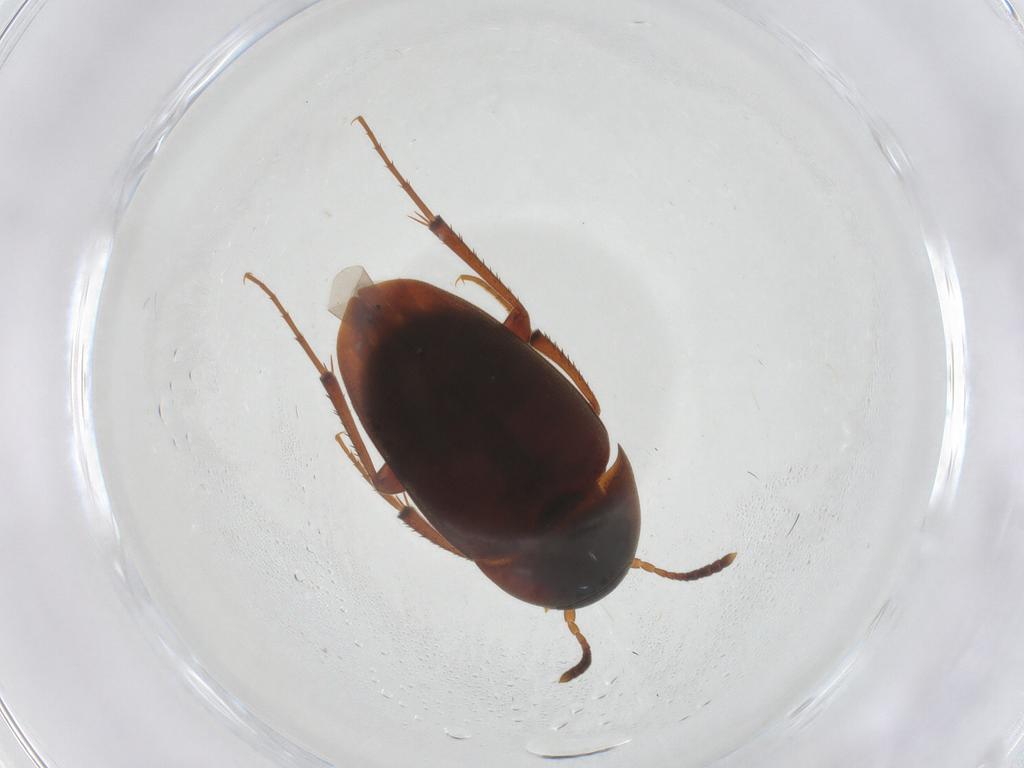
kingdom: Animalia
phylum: Arthropoda
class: Insecta
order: Coleoptera
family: Leiodidae
